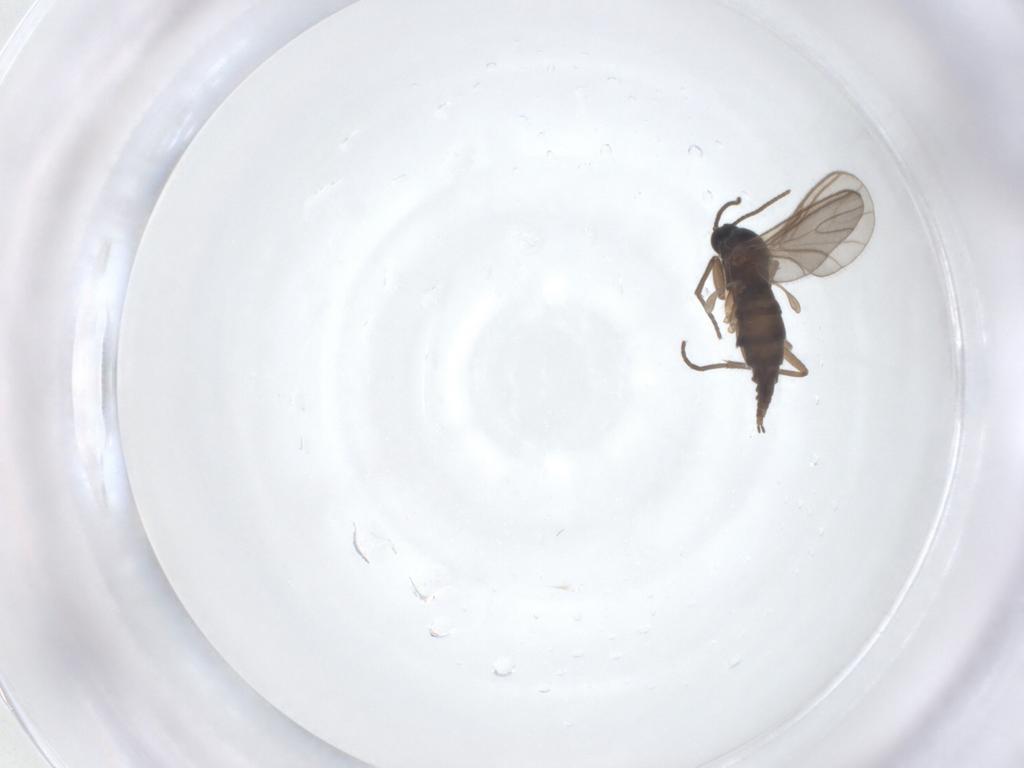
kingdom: Animalia
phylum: Arthropoda
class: Insecta
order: Diptera
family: Sciaridae
